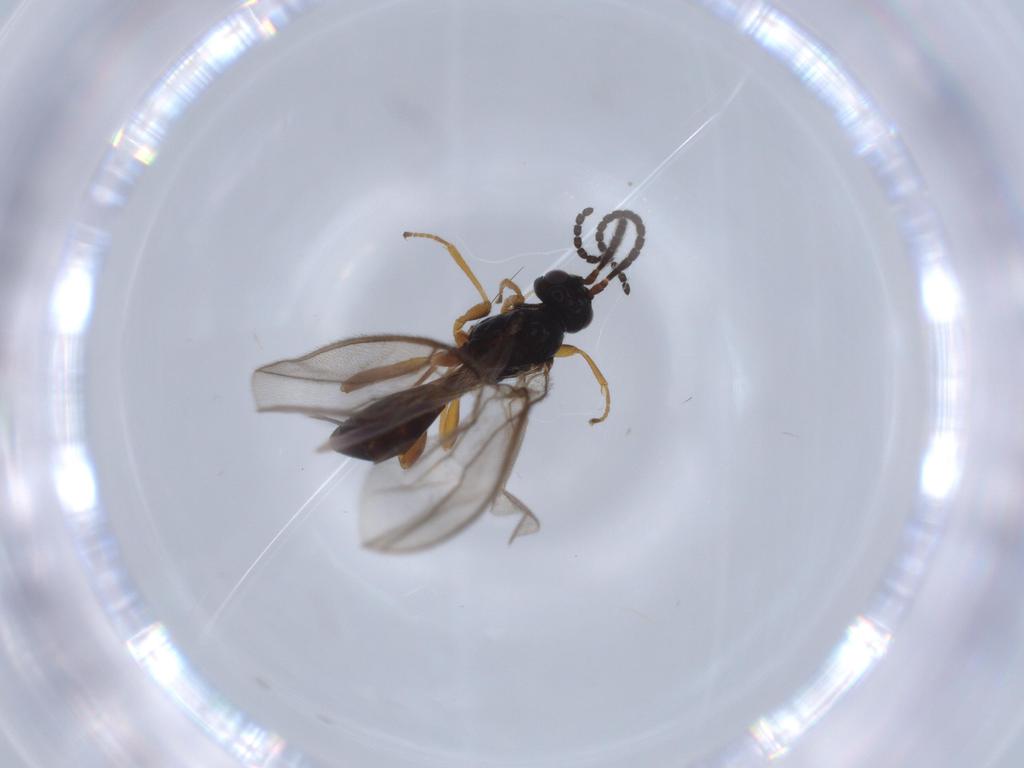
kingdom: Animalia
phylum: Arthropoda
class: Insecta
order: Hymenoptera
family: Braconidae
